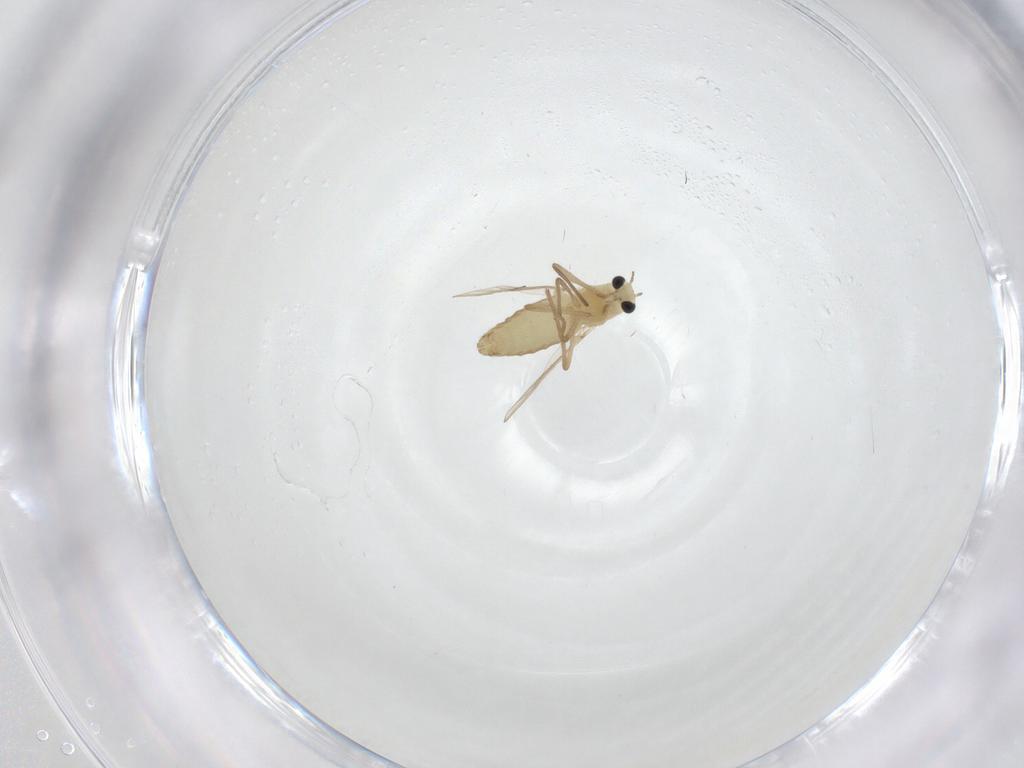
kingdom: Animalia
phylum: Arthropoda
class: Insecta
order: Diptera
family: Chironomidae
